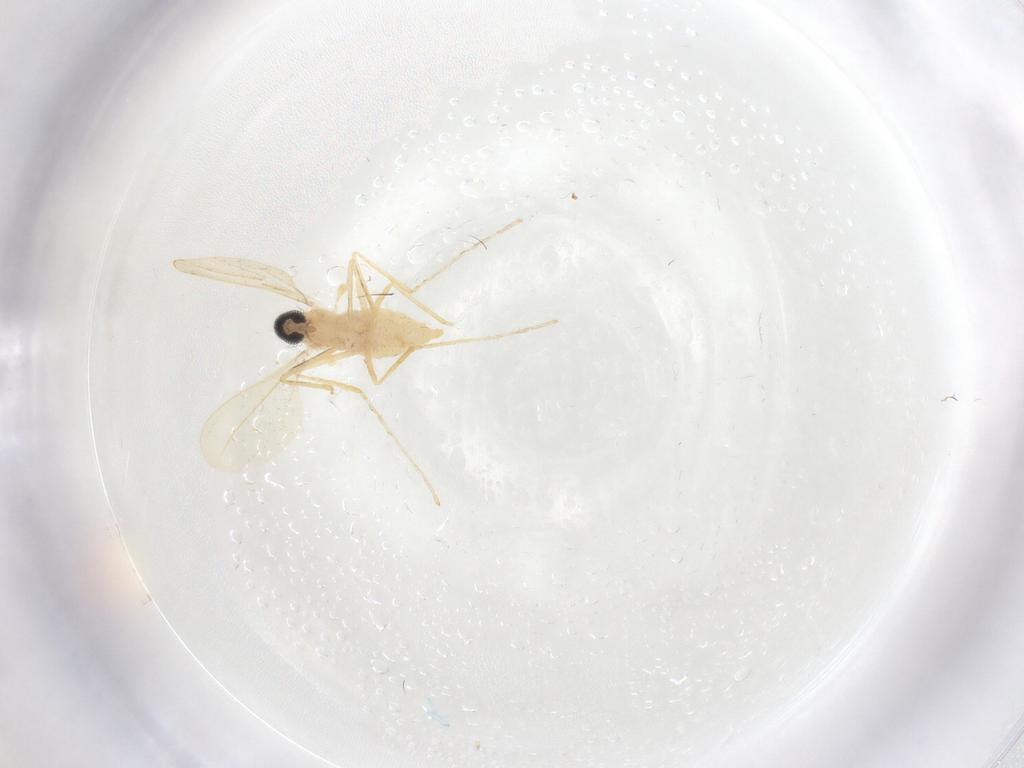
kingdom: Animalia
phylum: Arthropoda
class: Insecta
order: Diptera
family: Cecidomyiidae
